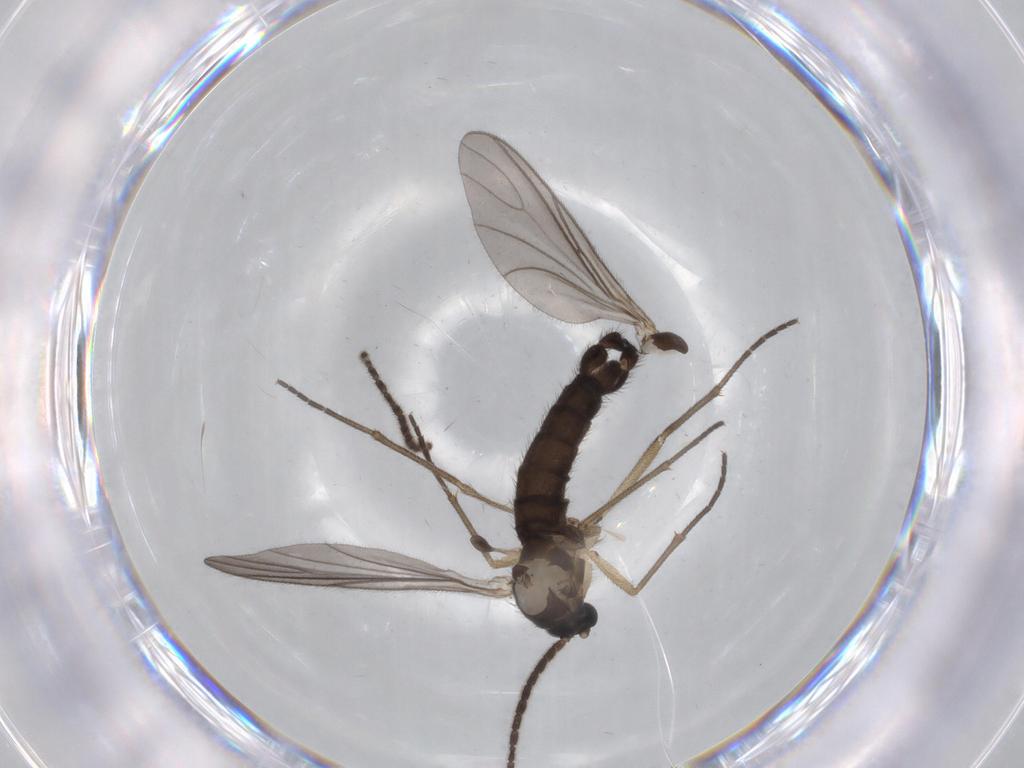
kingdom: Animalia
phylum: Arthropoda
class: Insecta
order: Diptera
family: Sciaridae
